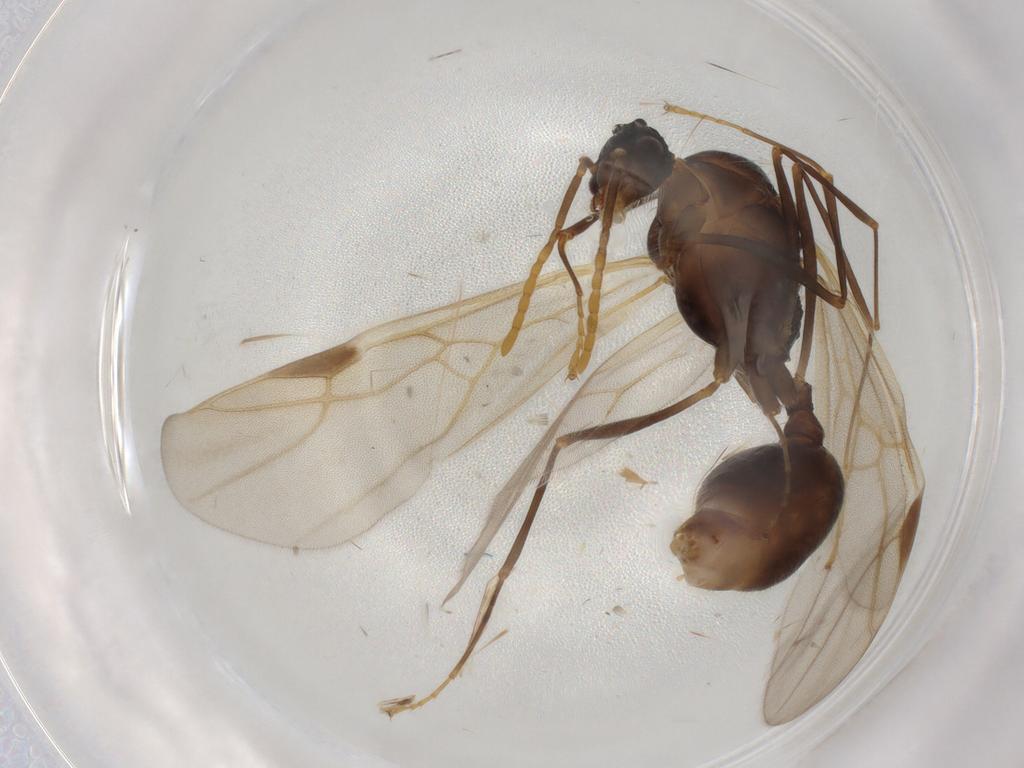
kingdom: Animalia
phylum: Arthropoda
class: Insecta
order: Hymenoptera
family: Formicidae
